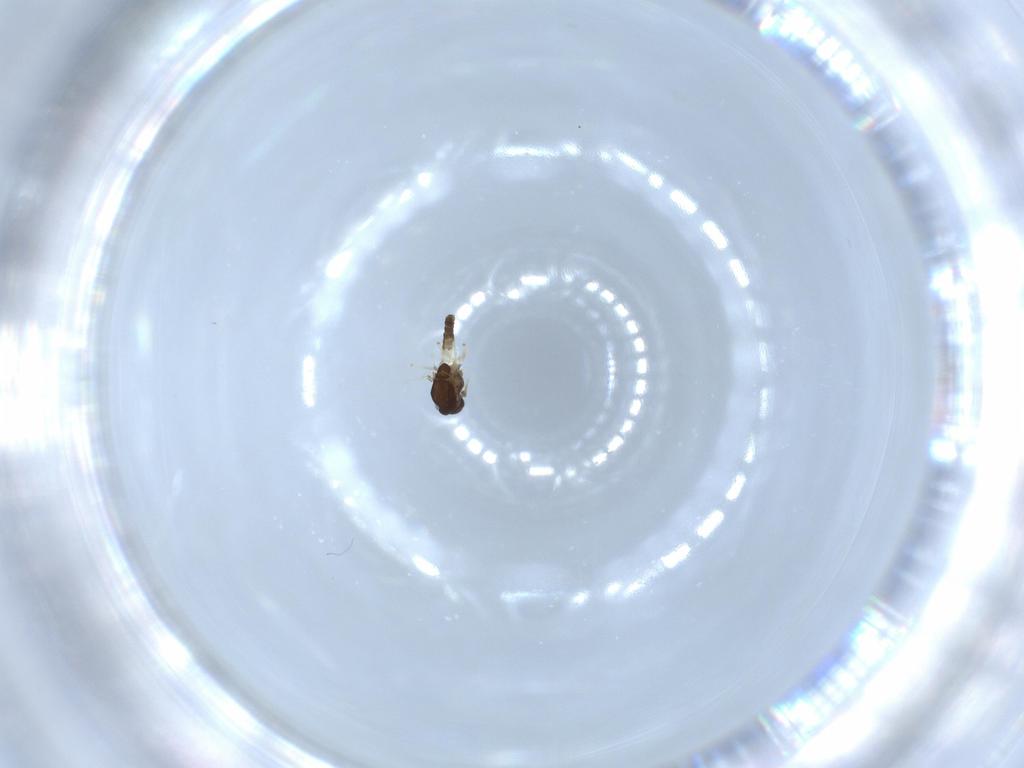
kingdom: Animalia
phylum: Arthropoda
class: Insecta
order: Diptera
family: Chironomidae
